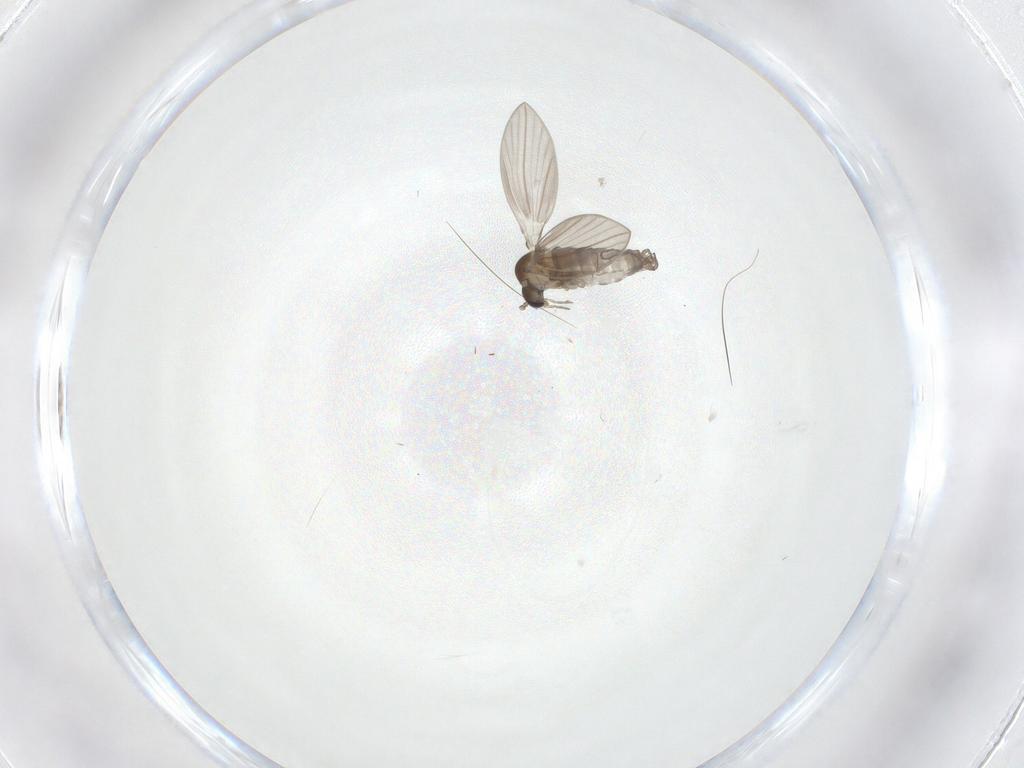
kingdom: Animalia
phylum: Arthropoda
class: Insecta
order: Diptera
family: Psychodidae
